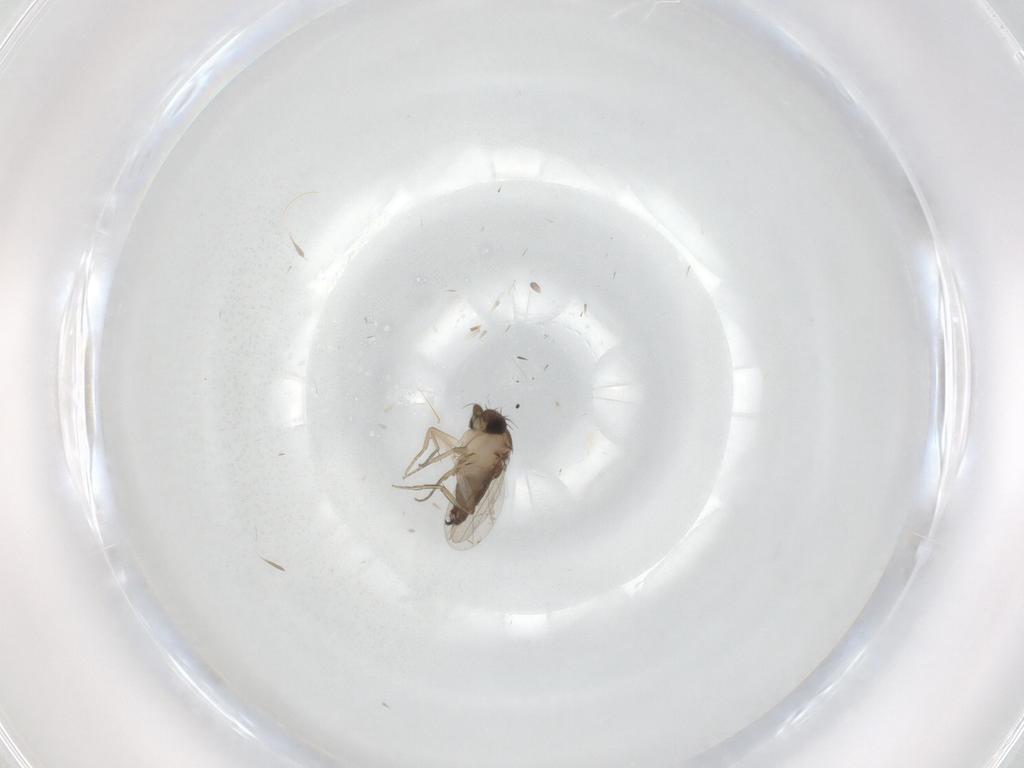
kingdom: Animalia
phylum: Arthropoda
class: Insecta
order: Diptera
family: Phoridae
